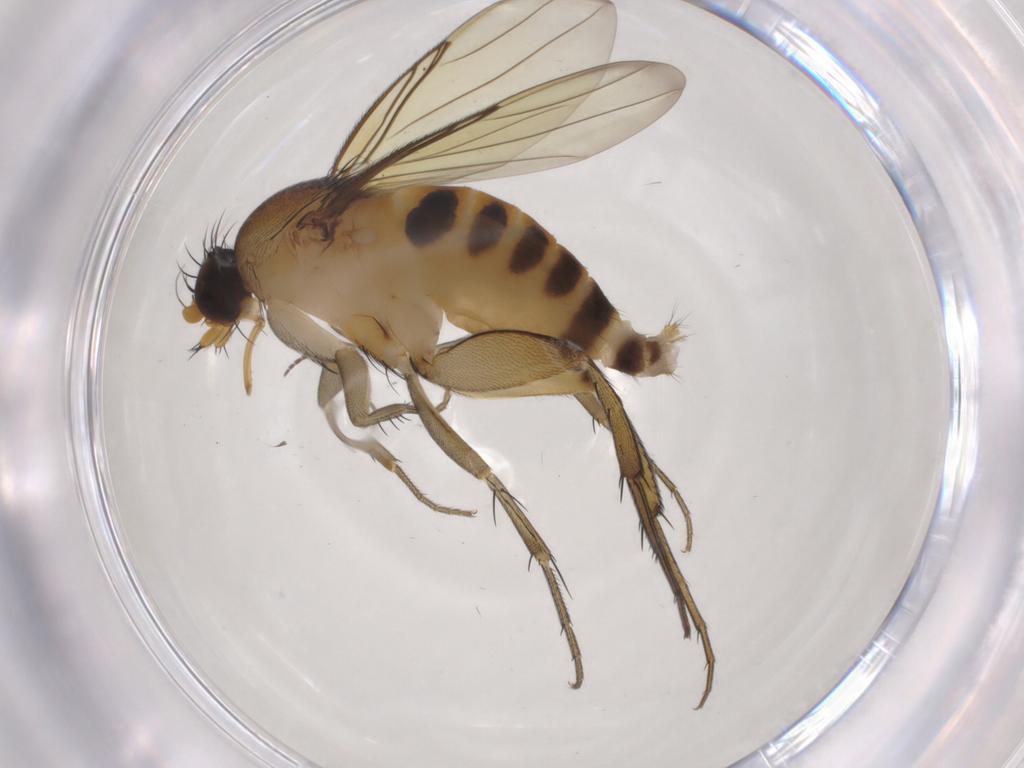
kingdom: Animalia
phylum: Arthropoda
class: Insecta
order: Diptera
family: Phoridae
